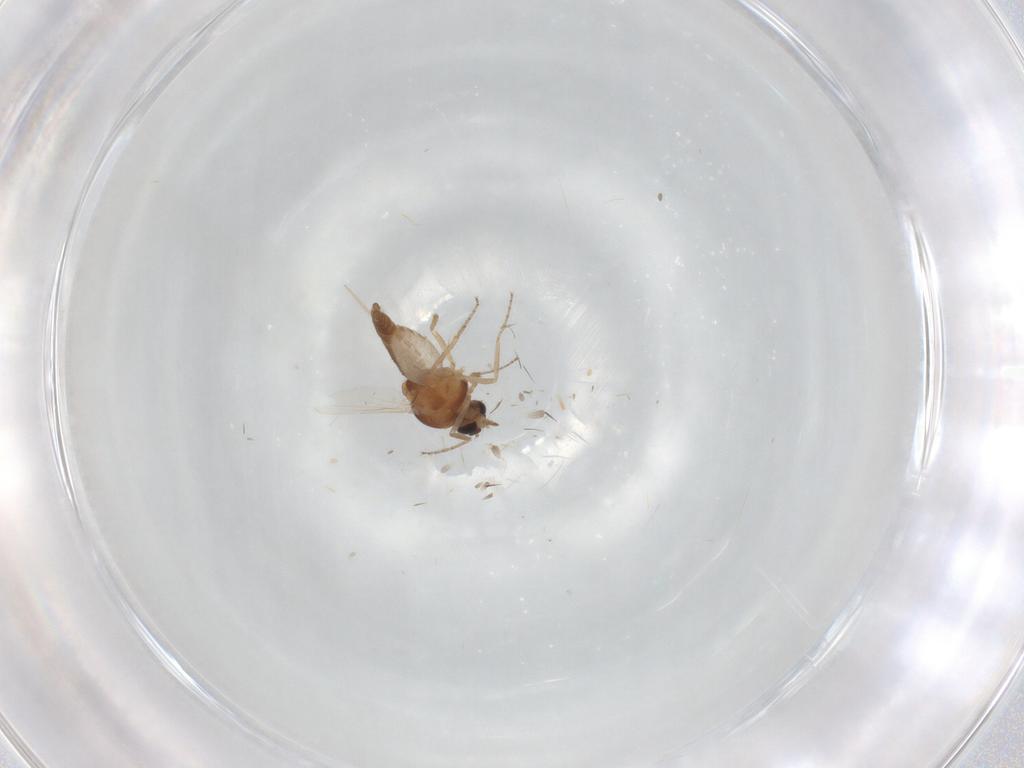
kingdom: Animalia
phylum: Arthropoda
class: Insecta
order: Diptera
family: Ceratopogonidae
